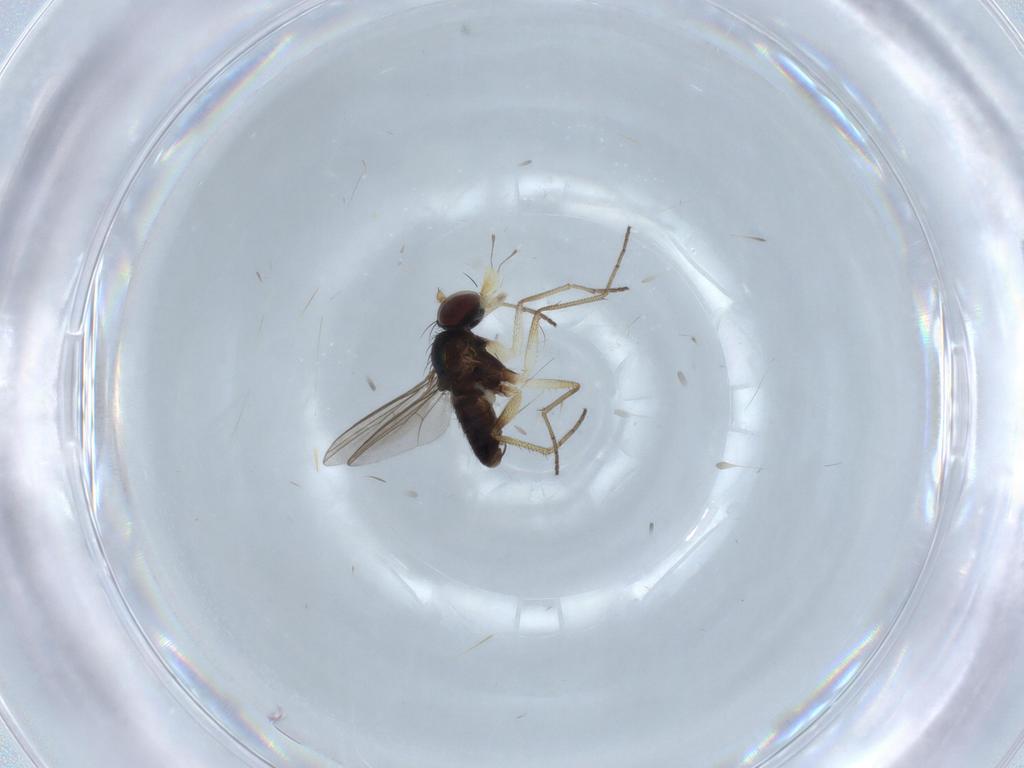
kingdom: Animalia
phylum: Arthropoda
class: Insecta
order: Diptera
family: Dolichopodidae
